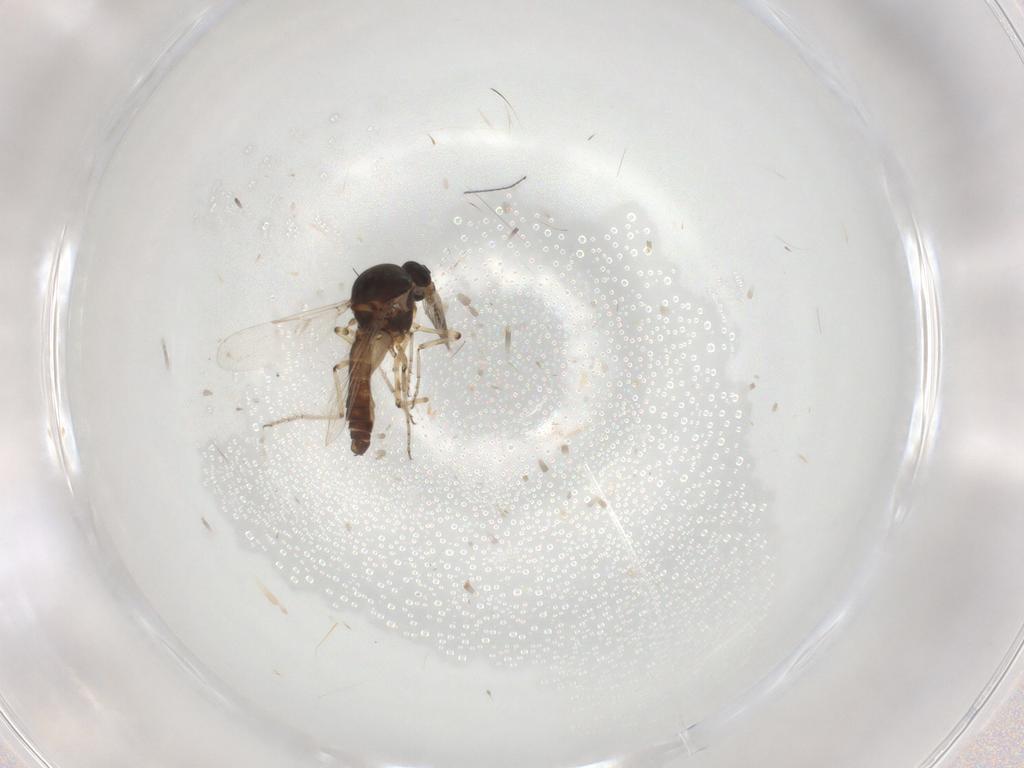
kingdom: Animalia
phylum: Arthropoda
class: Insecta
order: Diptera
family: Ceratopogonidae
